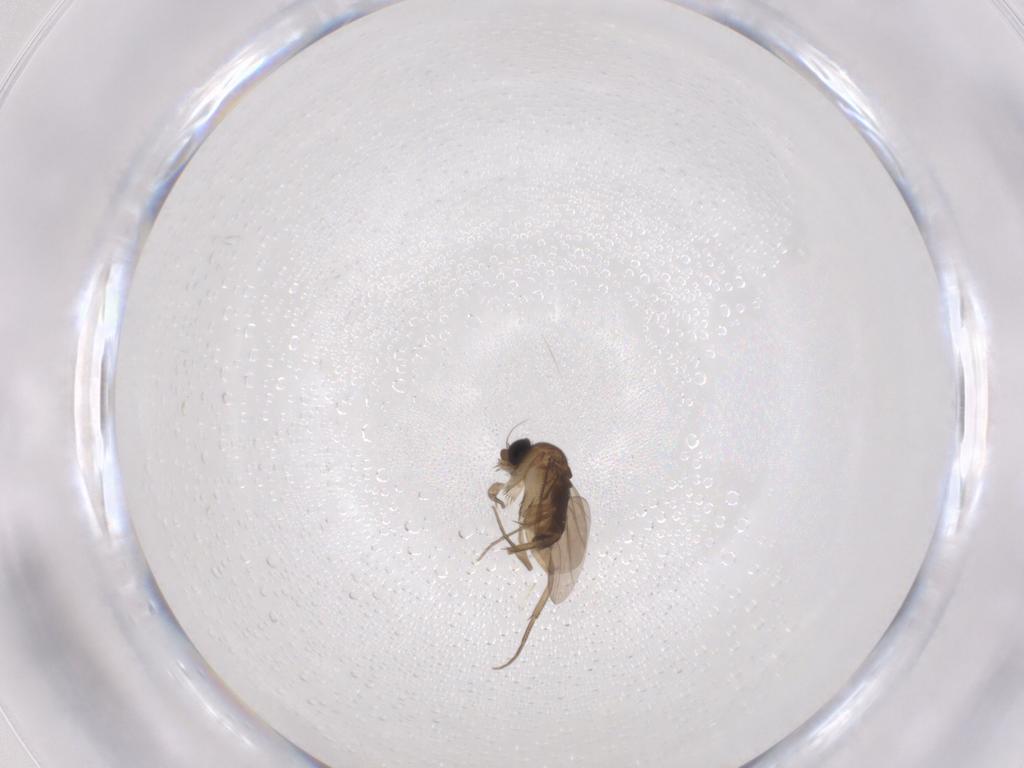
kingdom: Animalia
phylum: Arthropoda
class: Insecta
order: Diptera
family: Phoridae
